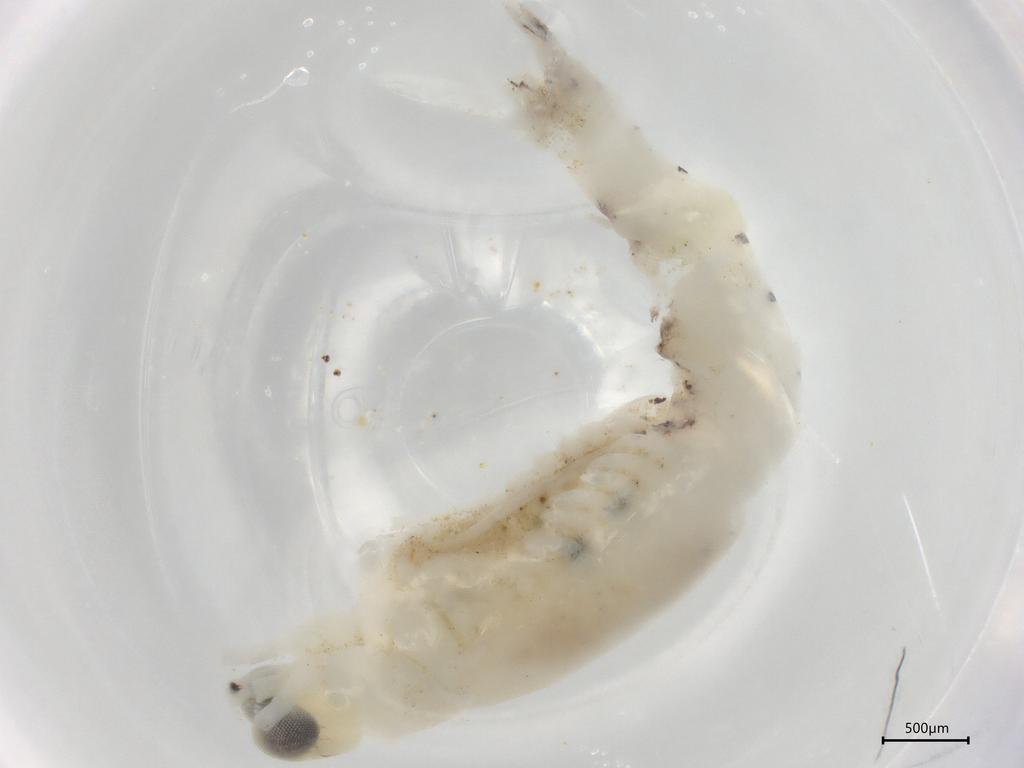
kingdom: Animalia
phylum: Arthropoda
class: Malacostraca
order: Mysida
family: Mysidae
